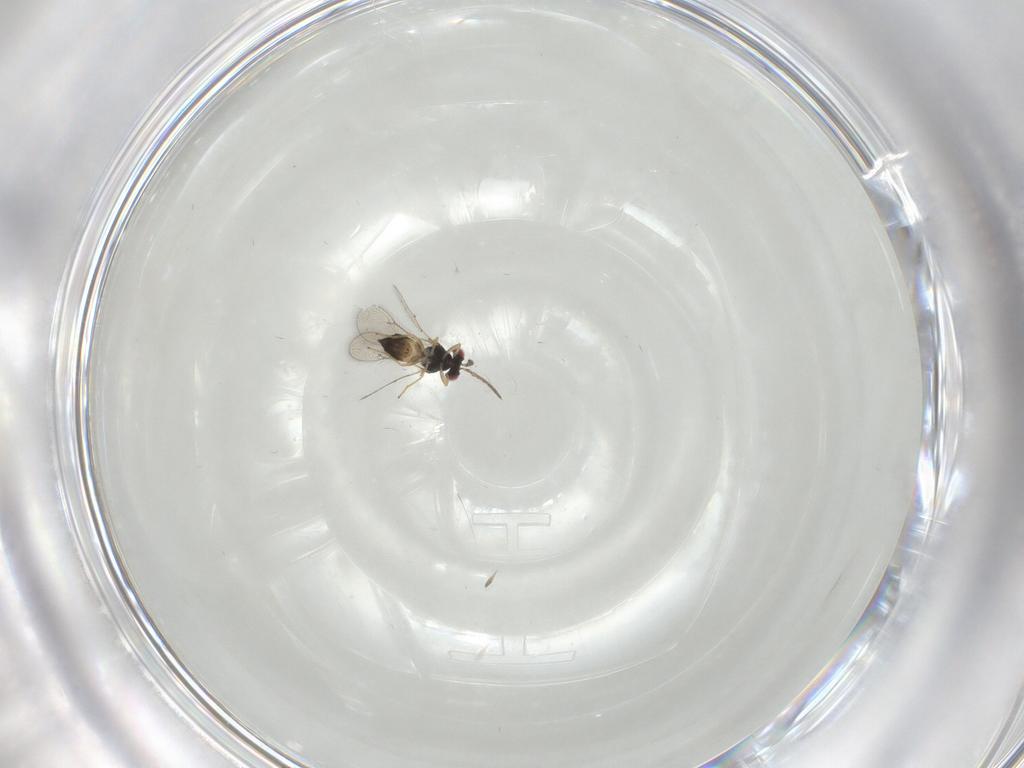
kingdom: Animalia
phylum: Arthropoda
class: Insecta
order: Hymenoptera
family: Eulophidae
